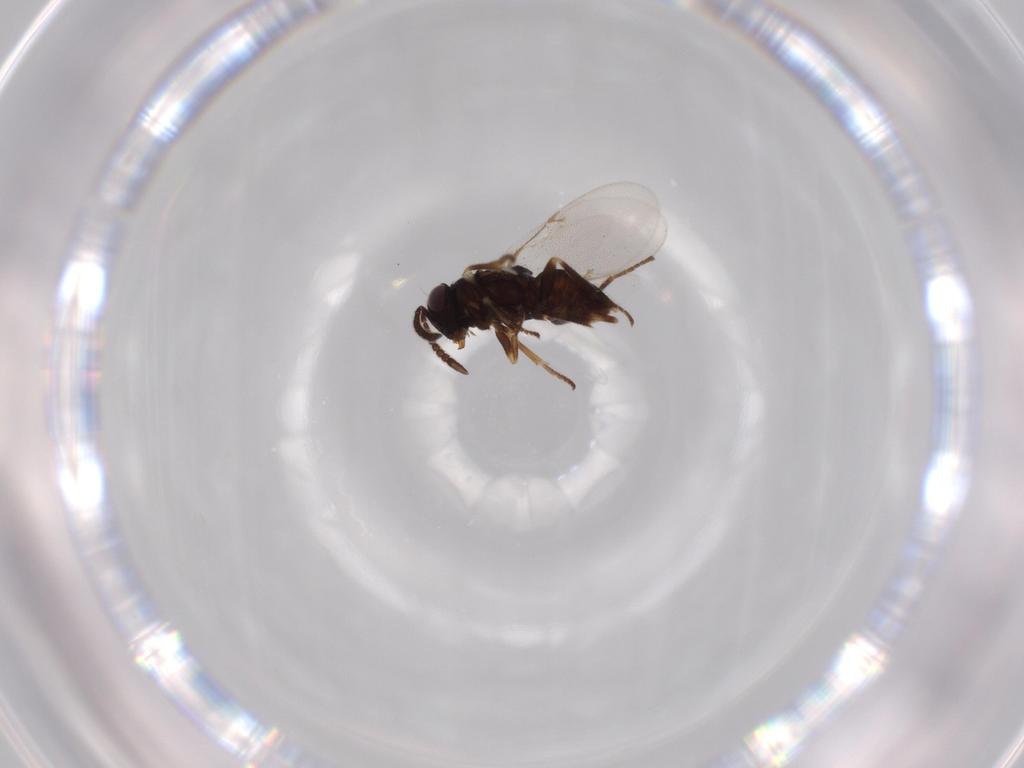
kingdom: Animalia
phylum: Arthropoda
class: Insecta
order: Hymenoptera
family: Encyrtidae
